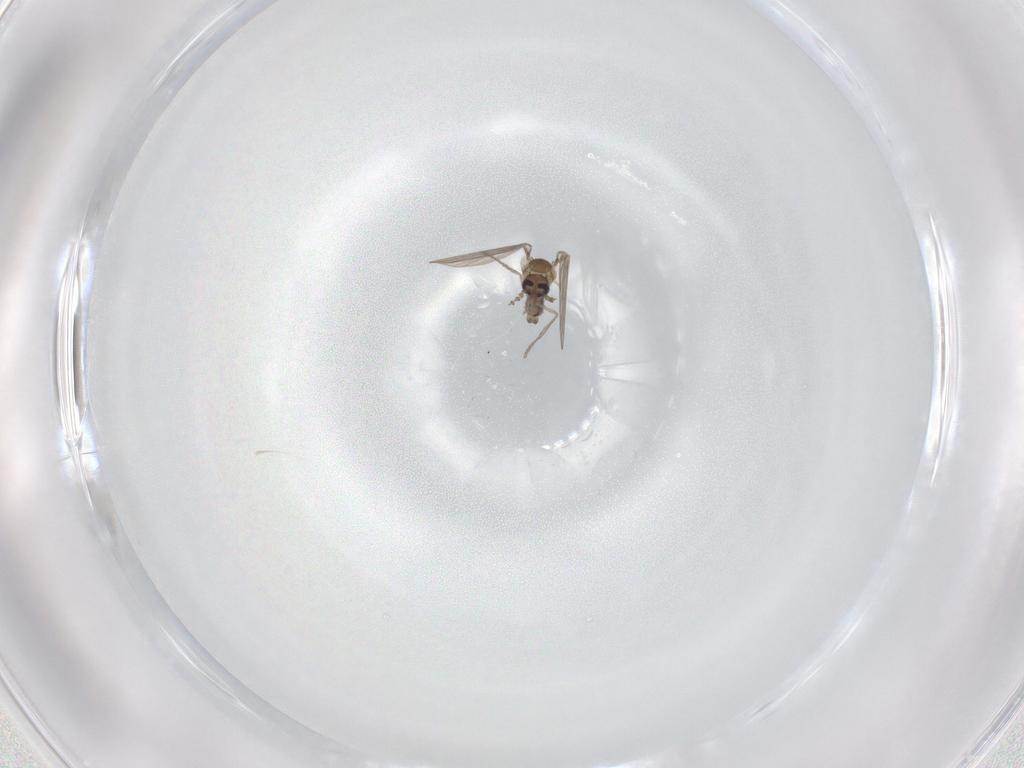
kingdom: Animalia
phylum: Arthropoda
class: Insecta
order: Diptera
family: Psychodidae
